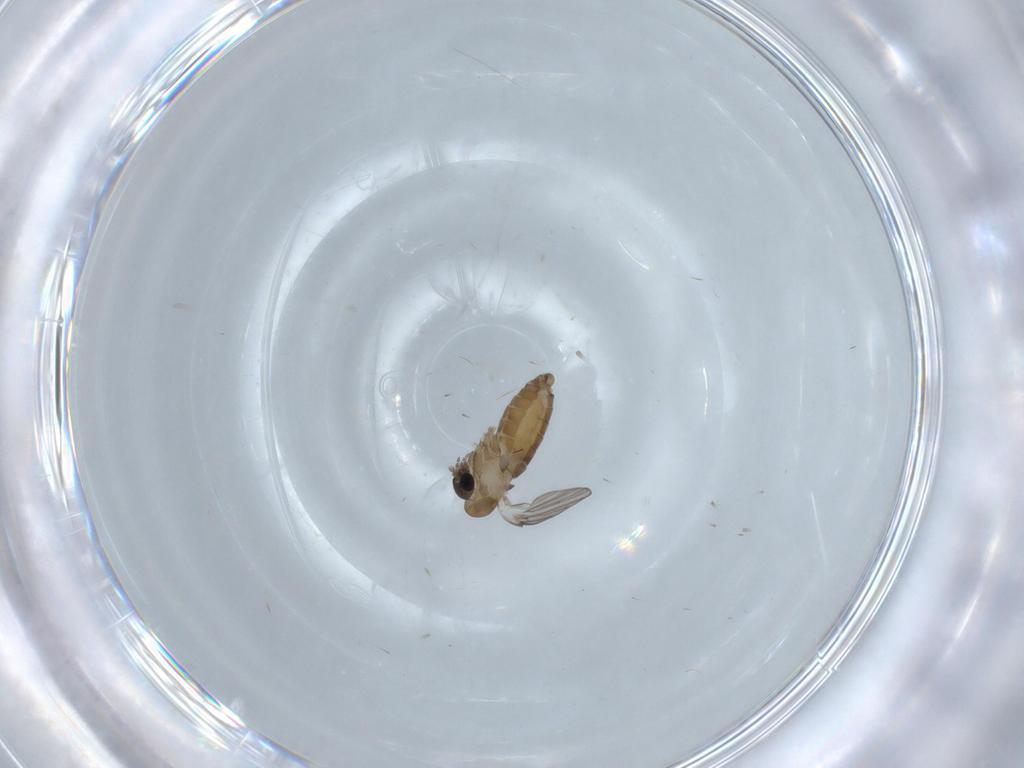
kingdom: Animalia
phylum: Arthropoda
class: Insecta
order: Diptera
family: Psychodidae
